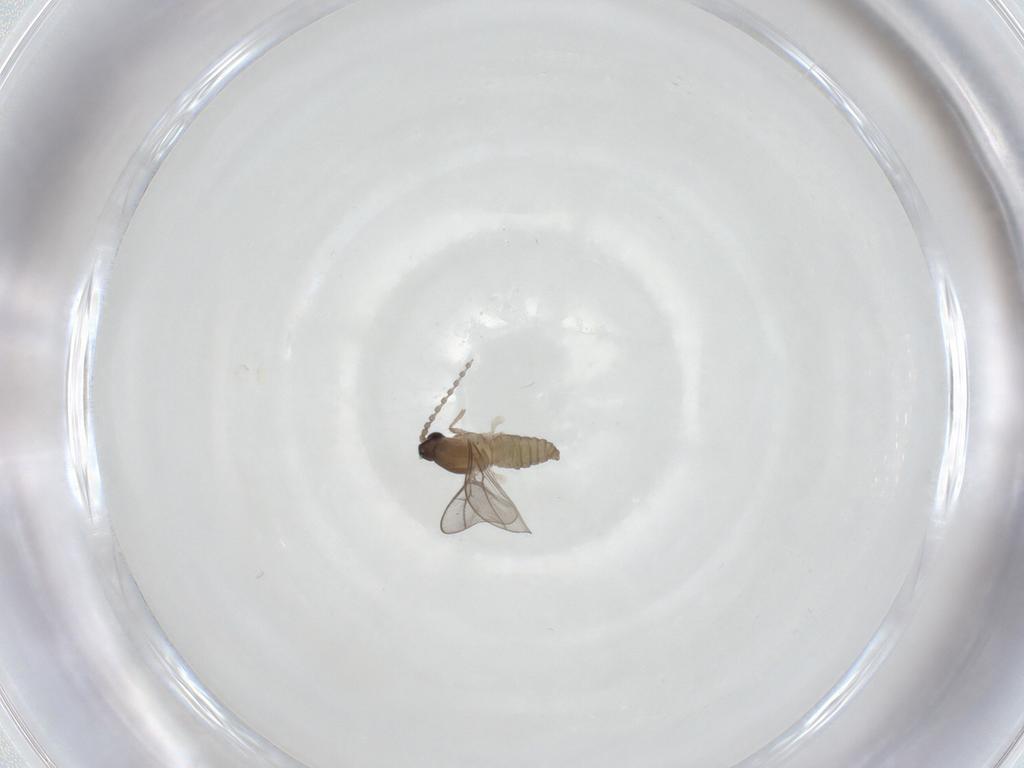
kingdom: Animalia
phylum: Arthropoda
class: Insecta
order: Diptera
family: Cecidomyiidae
